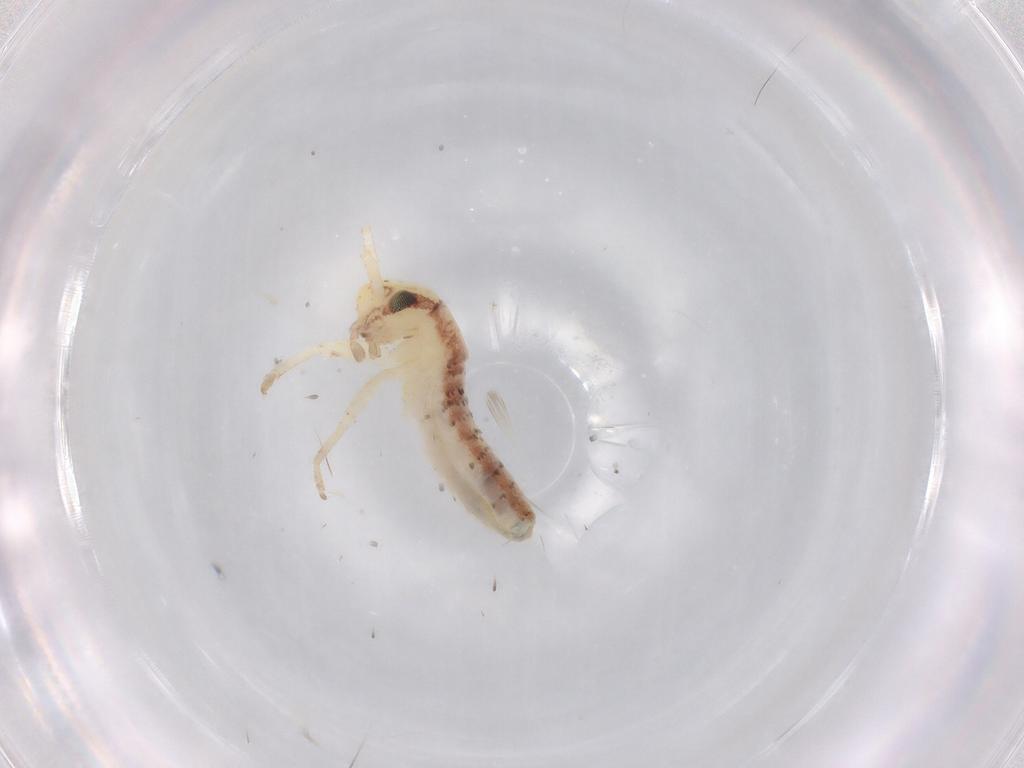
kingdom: Animalia
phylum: Arthropoda
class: Insecta
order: Orthoptera
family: Gryllidae
